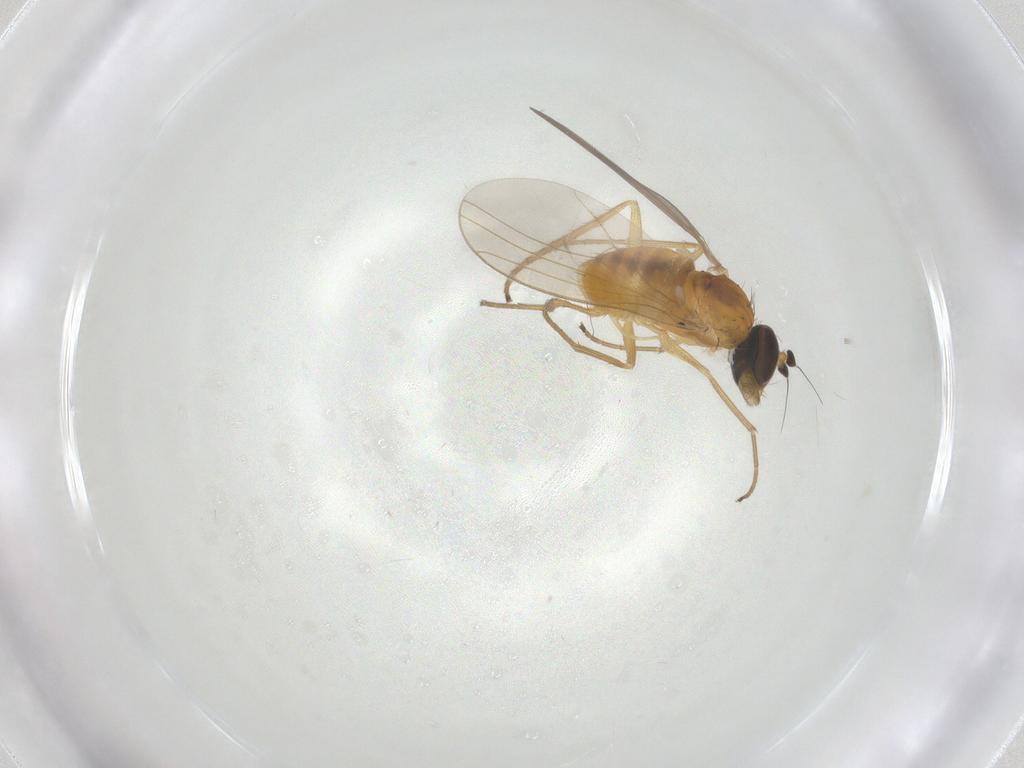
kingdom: Animalia
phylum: Arthropoda
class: Insecta
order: Diptera
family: Dolichopodidae
